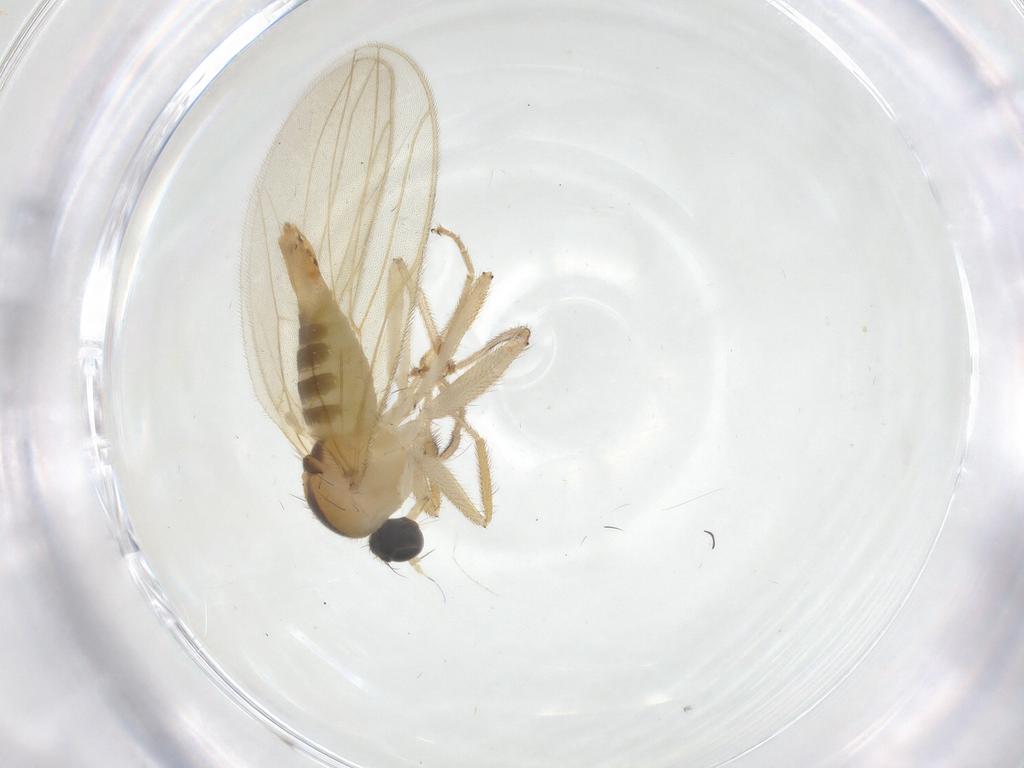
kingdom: Animalia
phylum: Arthropoda
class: Insecta
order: Diptera
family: Hybotidae
